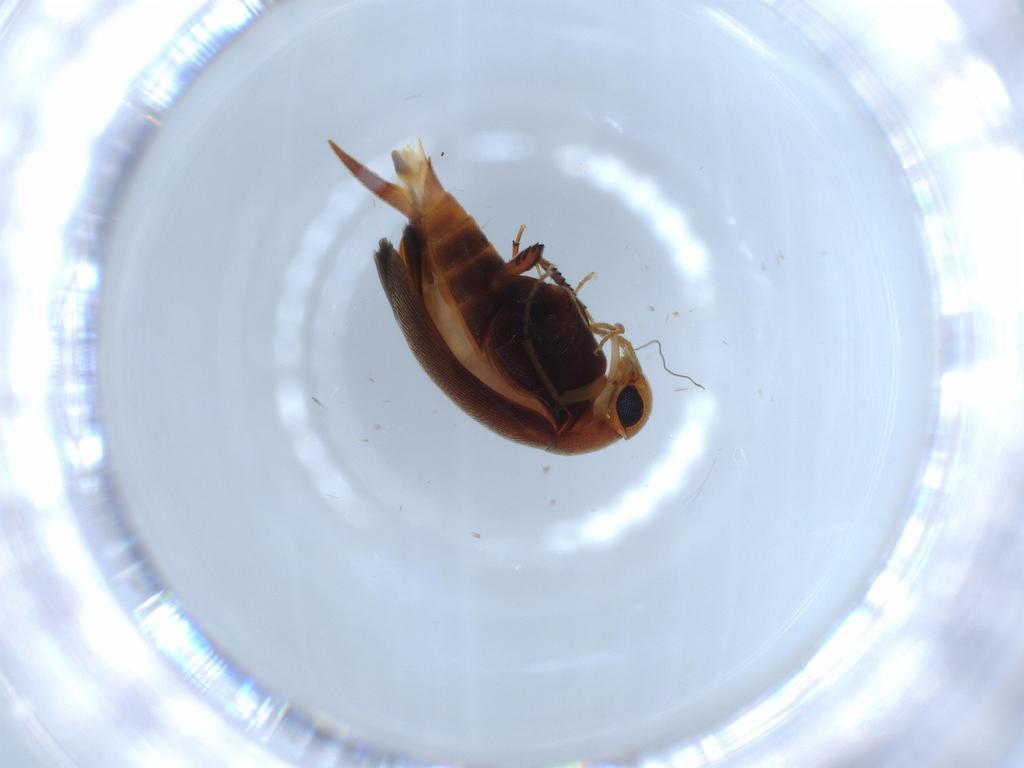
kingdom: Animalia
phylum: Arthropoda
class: Insecta
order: Coleoptera
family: Mordellidae
